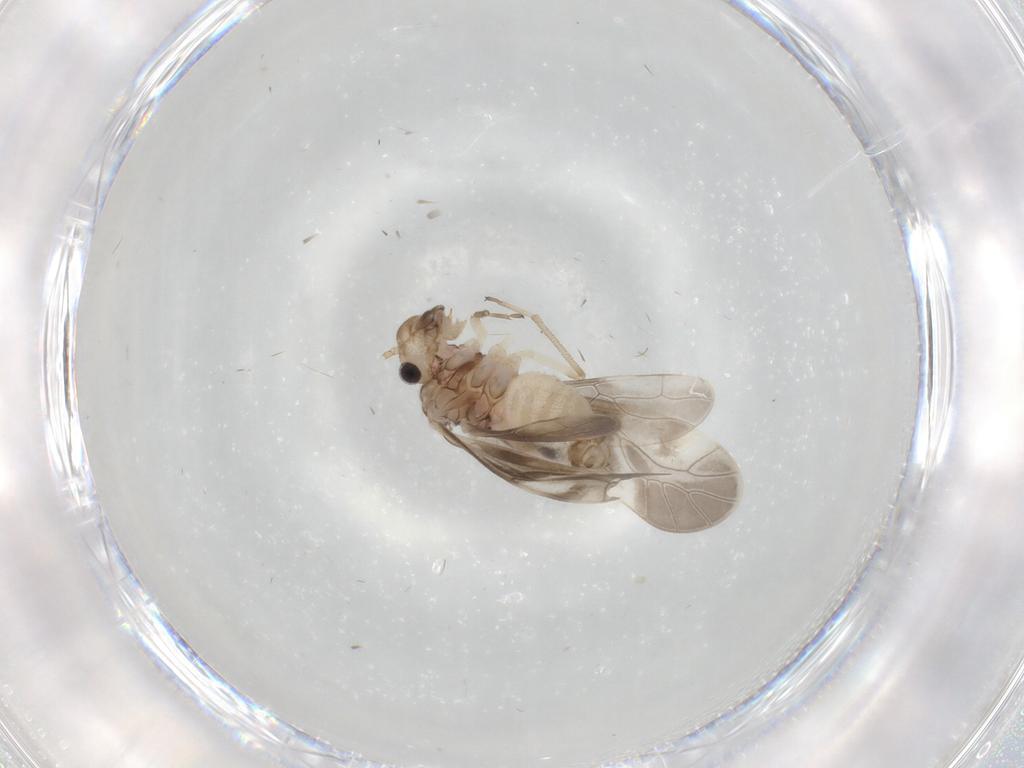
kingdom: Animalia
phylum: Arthropoda
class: Insecta
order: Psocodea
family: Caeciliusidae
